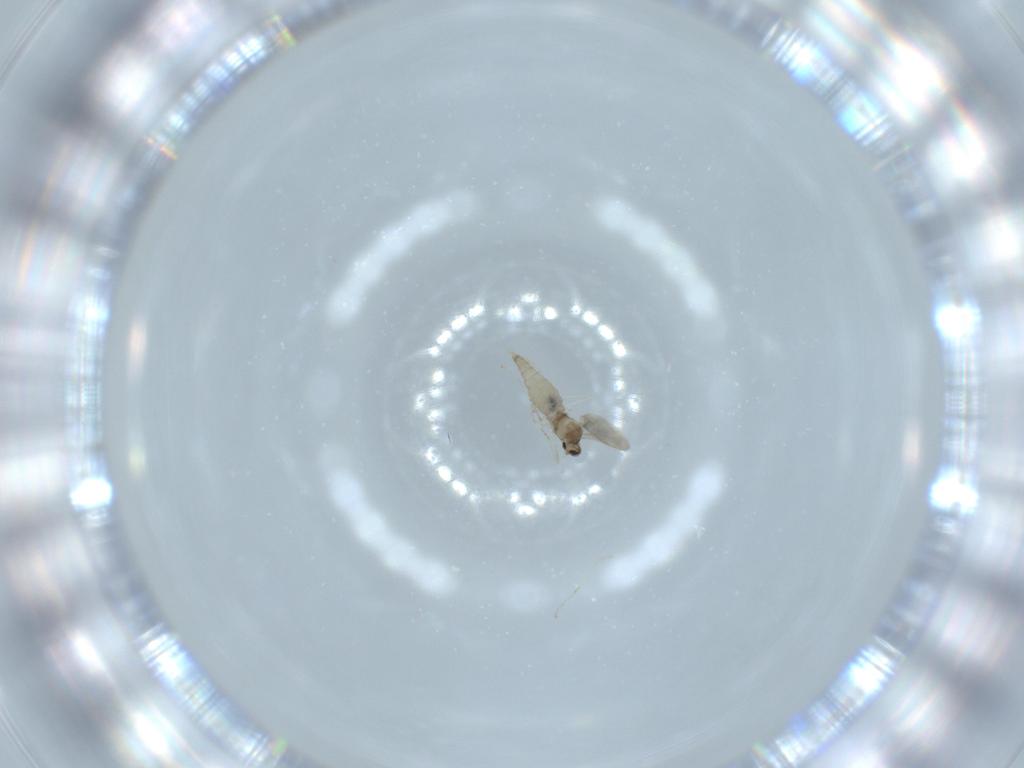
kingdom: Animalia
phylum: Arthropoda
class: Insecta
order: Diptera
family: Cecidomyiidae
